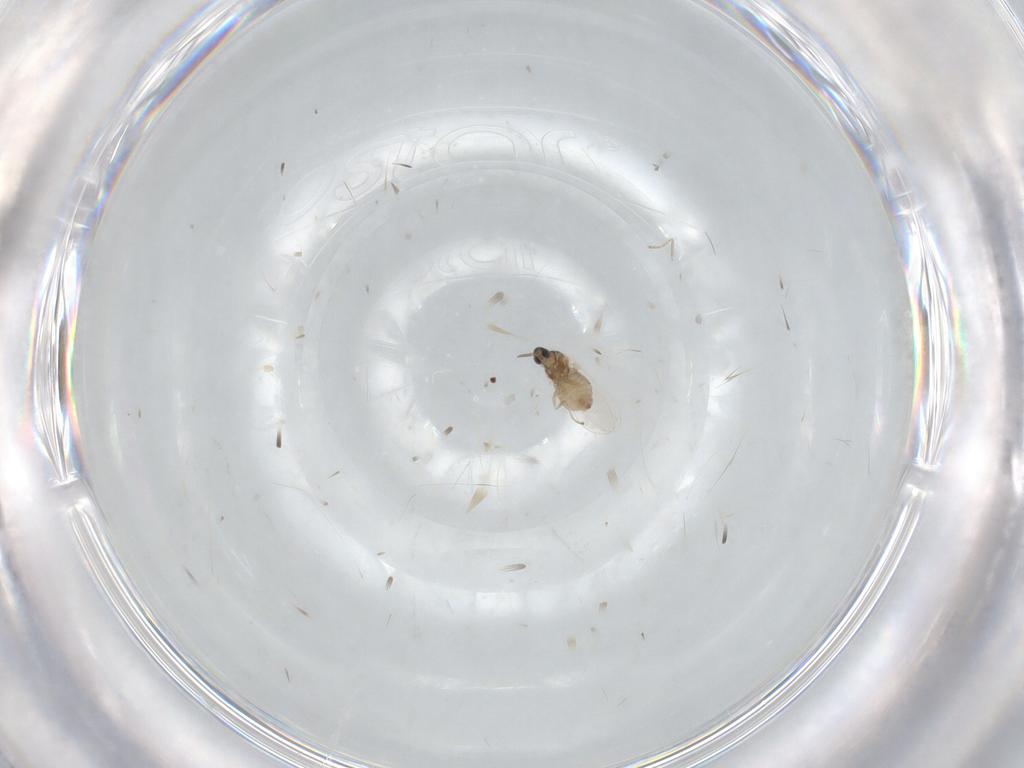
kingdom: Animalia
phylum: Arthropoda
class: Insecta
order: Diptera
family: Cecidomyiidae
